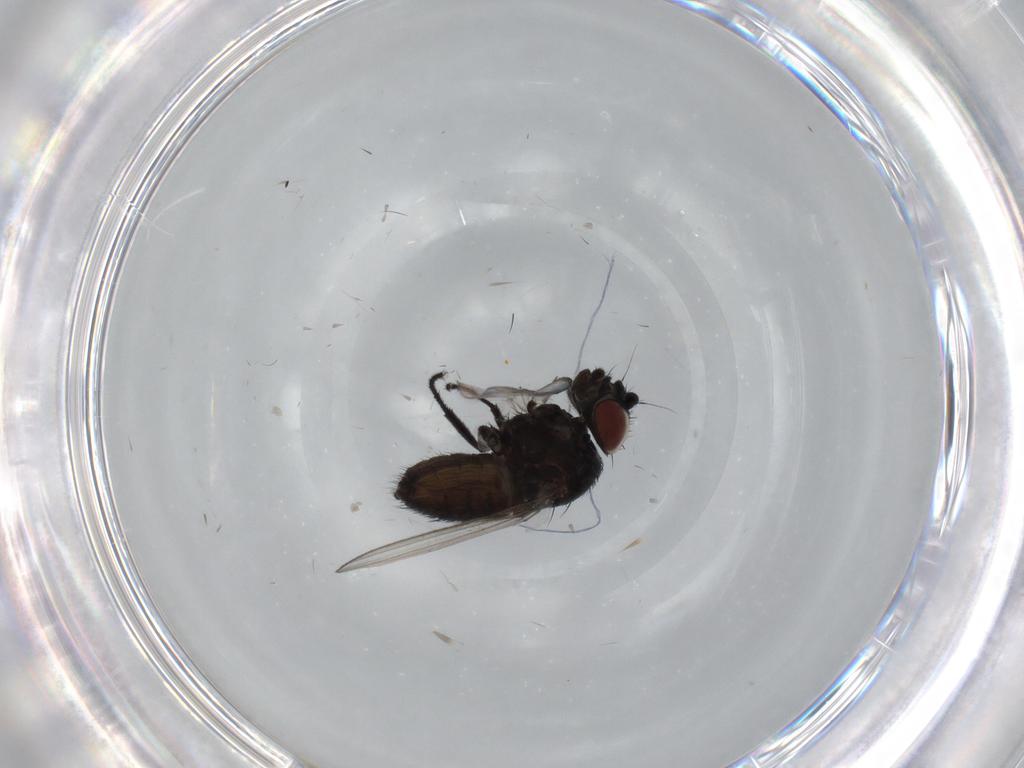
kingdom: Animalia
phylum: Arthropoda
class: Insecta
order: Diptera
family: Milichiidae
